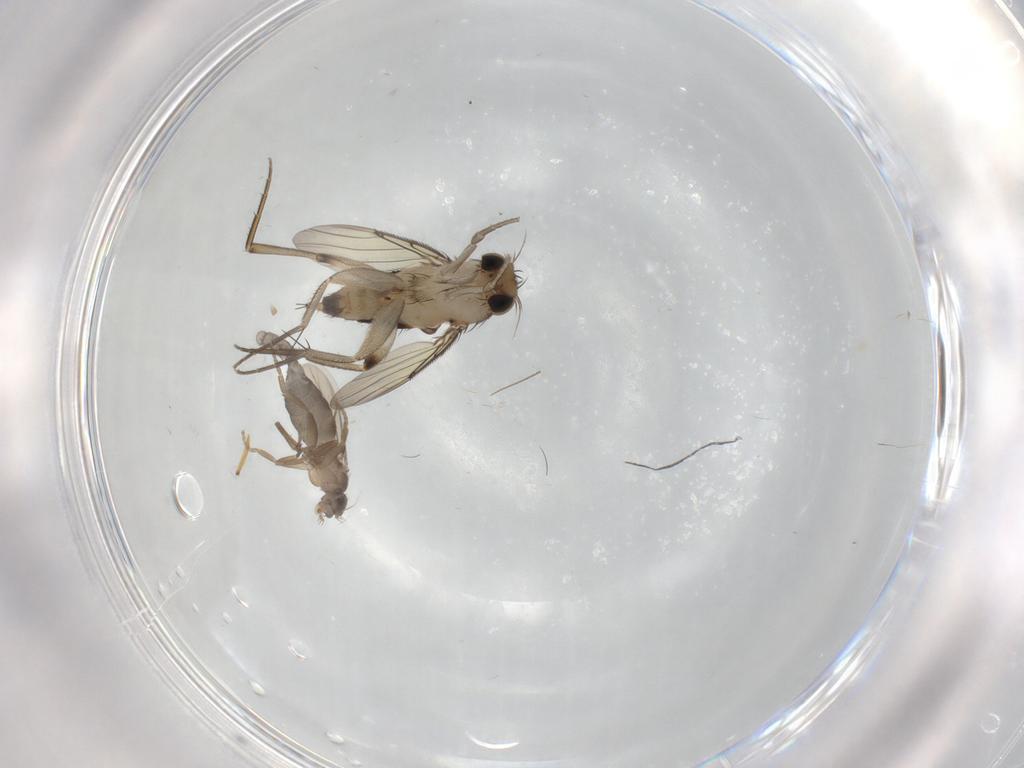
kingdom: Animalia
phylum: Arthropoda
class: Insecta
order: Diptera
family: Phoridae
